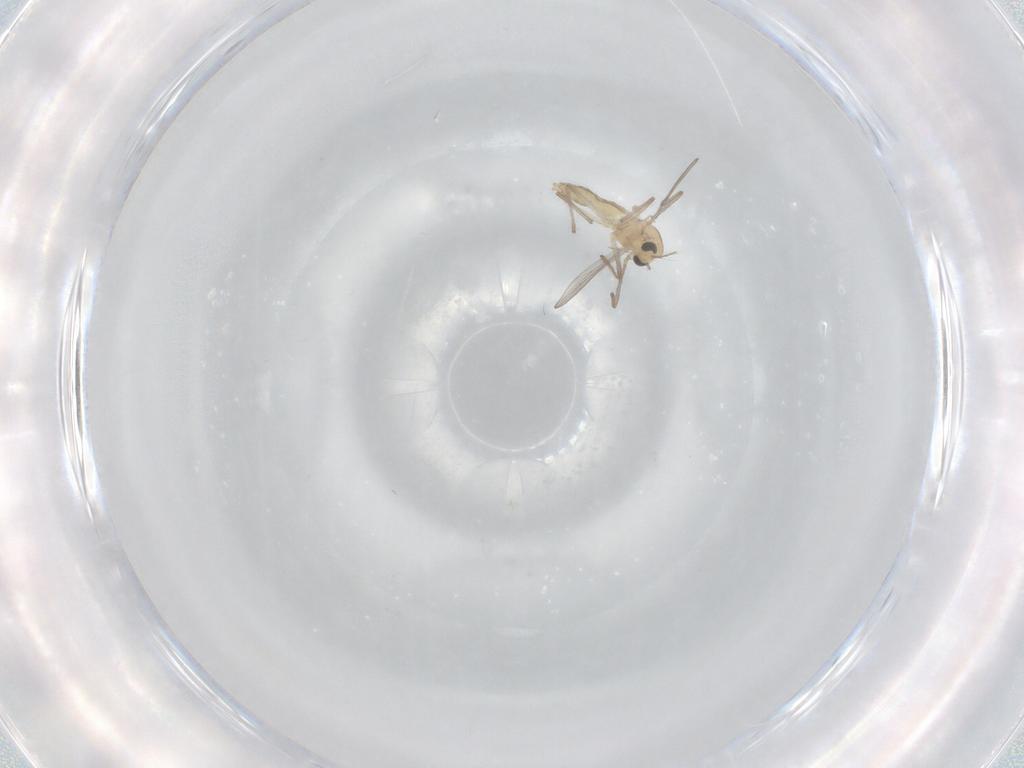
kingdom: Animalia
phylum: Arthropoda
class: Insecta
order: Diptera
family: Chironomidae
